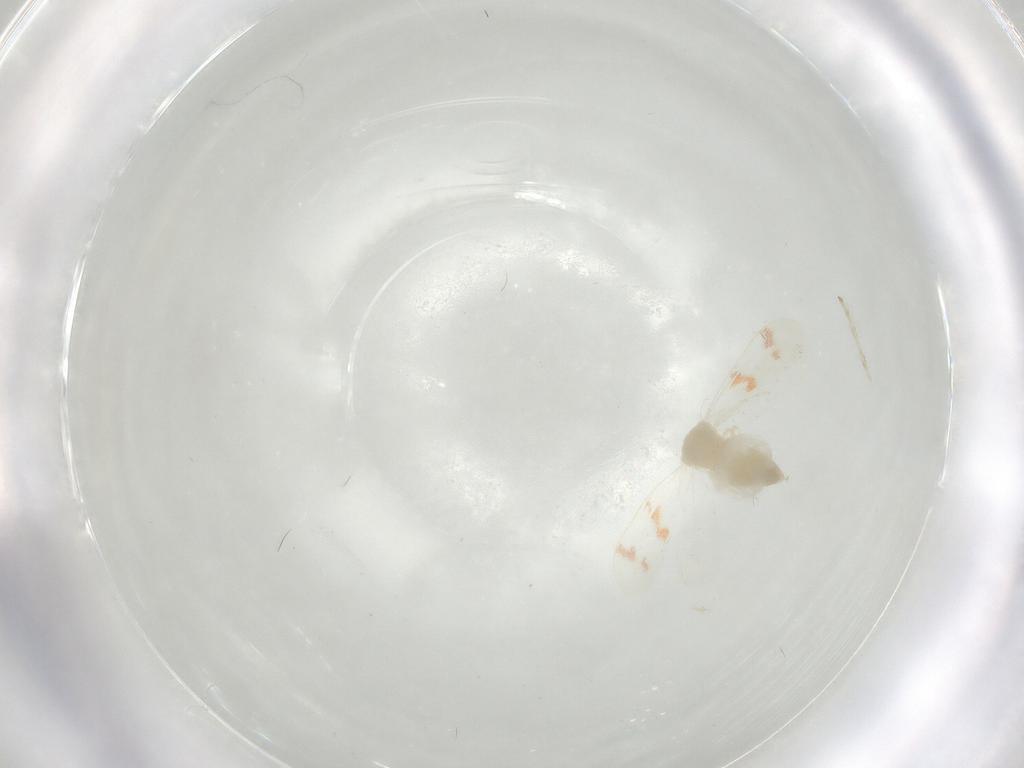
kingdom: Animalia
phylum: Arthropoda
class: Insecta
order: Hemiptera
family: Aleyrodidae
